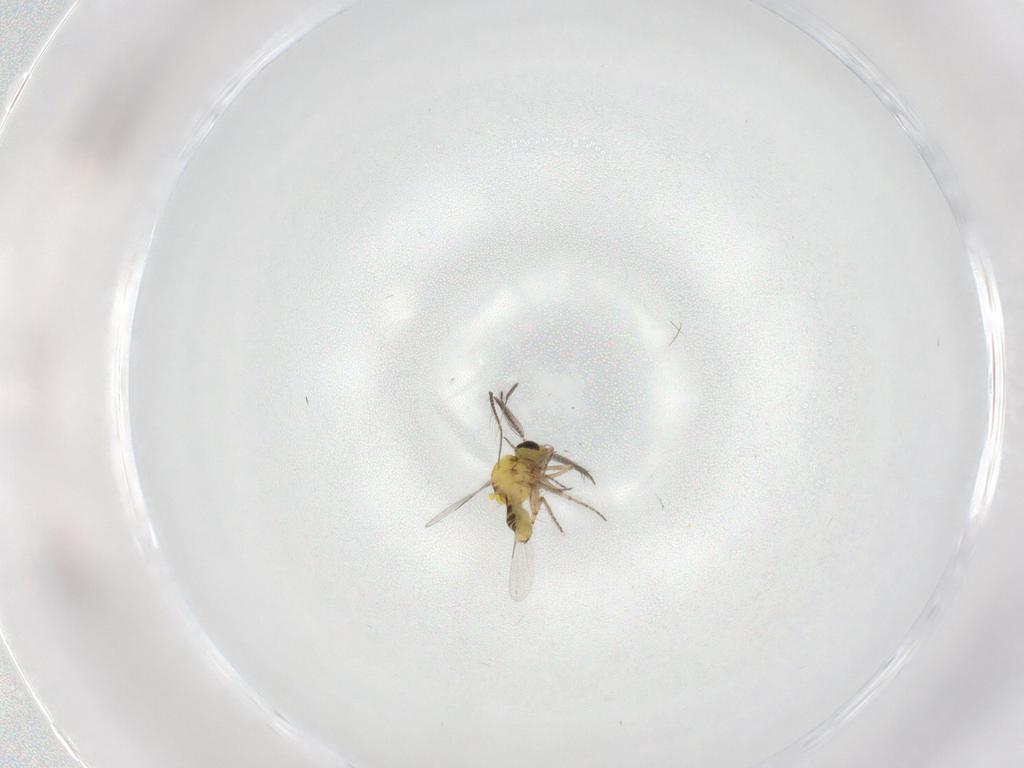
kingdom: Animalia
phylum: Arthropoda
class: Insecta
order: Diptera
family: Ceratopogonidae
